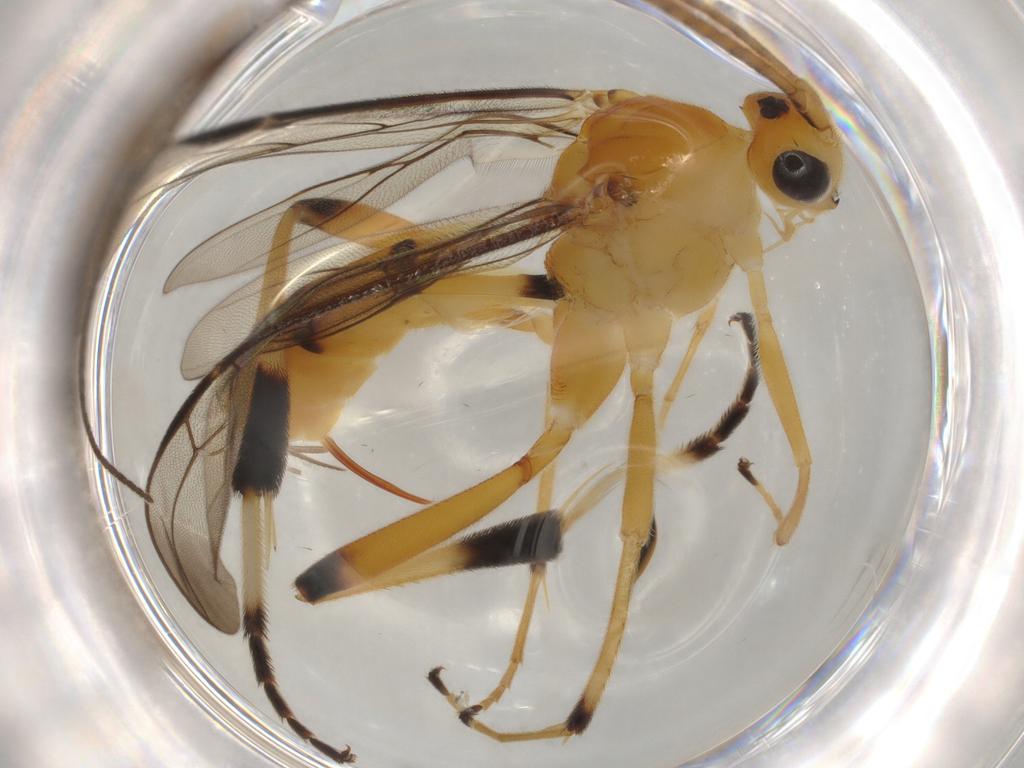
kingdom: Animalia
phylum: Arthropoda
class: Insecta
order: Hymenoptera
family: Braconidae
